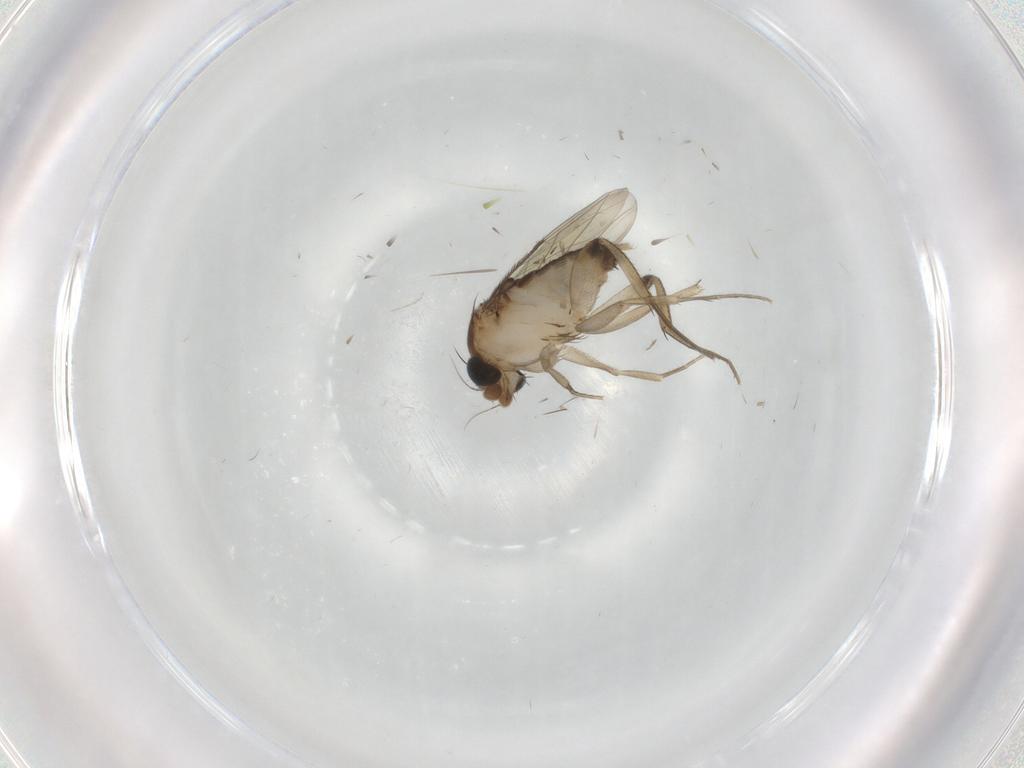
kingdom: Animalia
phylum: Arthropoda
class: Insecta
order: Diptera
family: Phoridae
